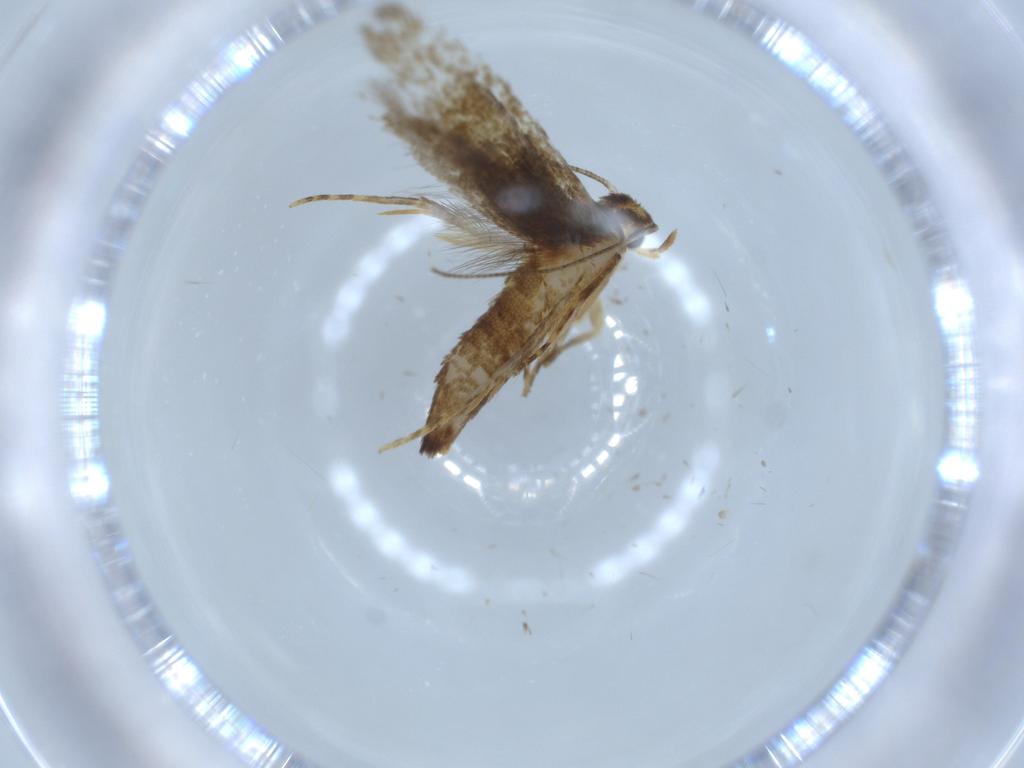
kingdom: Animalia
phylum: Arthropoda
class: Insecta
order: Lepidoptera
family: Tineidae
